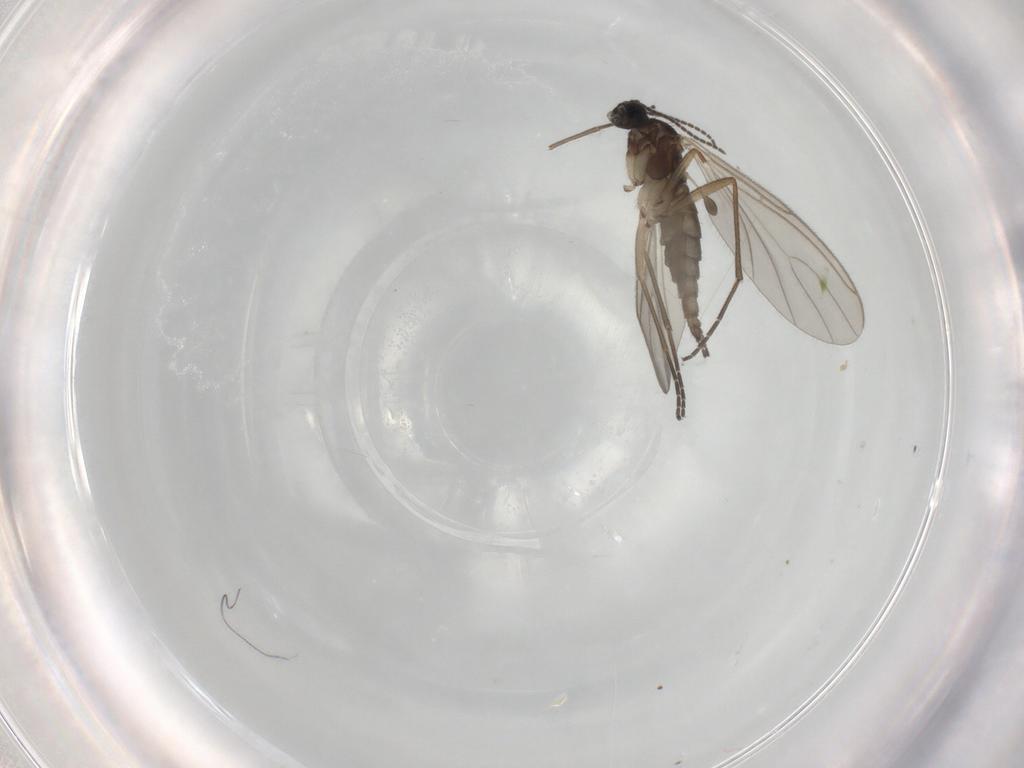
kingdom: Animalia
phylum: Arthropoda
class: Insecta
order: Diptera
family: Sciaridae
